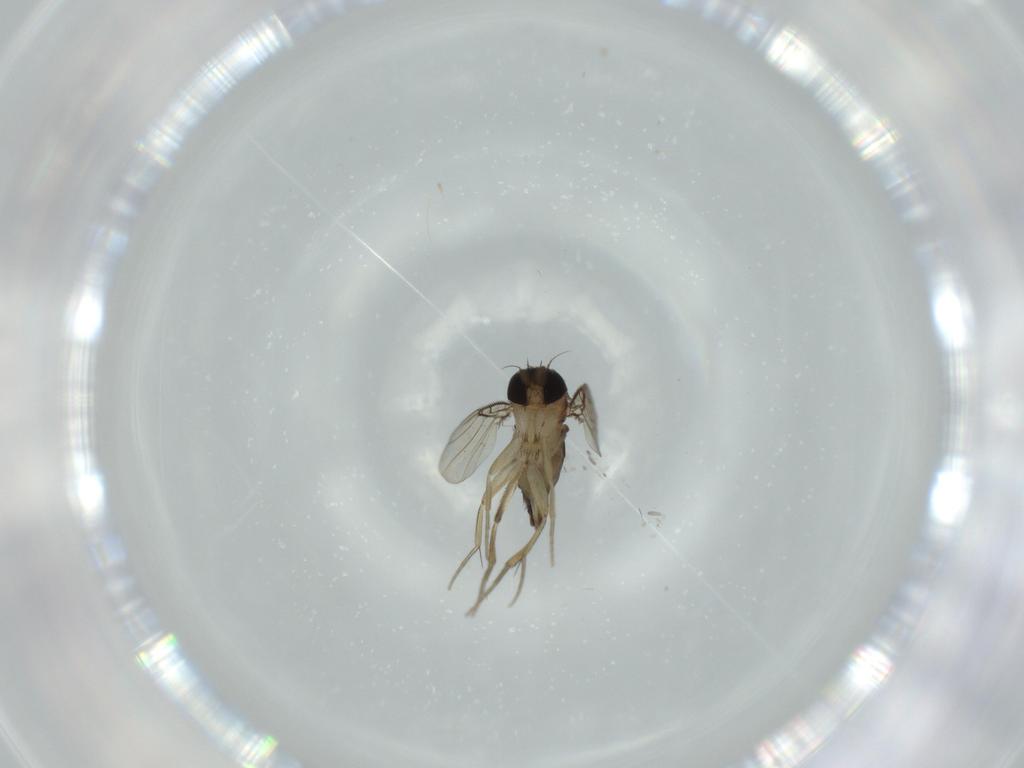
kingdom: Animalia
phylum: Arthropoda
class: Insecta
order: Diptera
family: Phoridae
